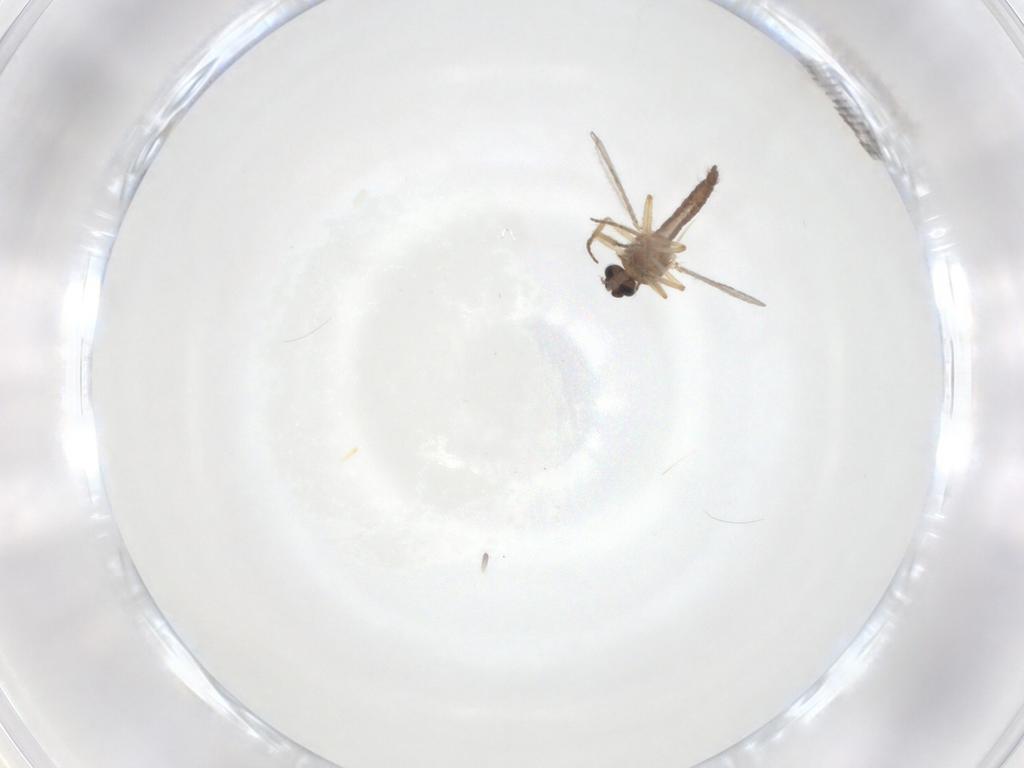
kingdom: Animalia
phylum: Arthropoda
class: Insecta
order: Diptera
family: Ceratopogonidae
